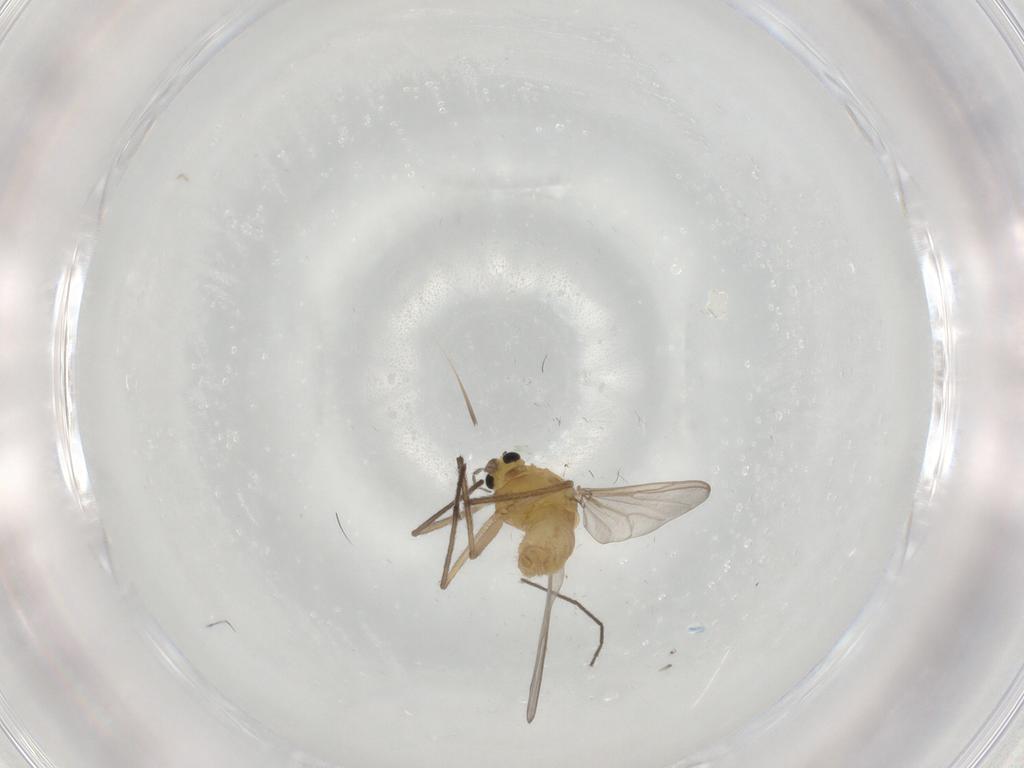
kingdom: Animalia
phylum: Arthropoda
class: Insecta
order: Diptera
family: Chironomidae
